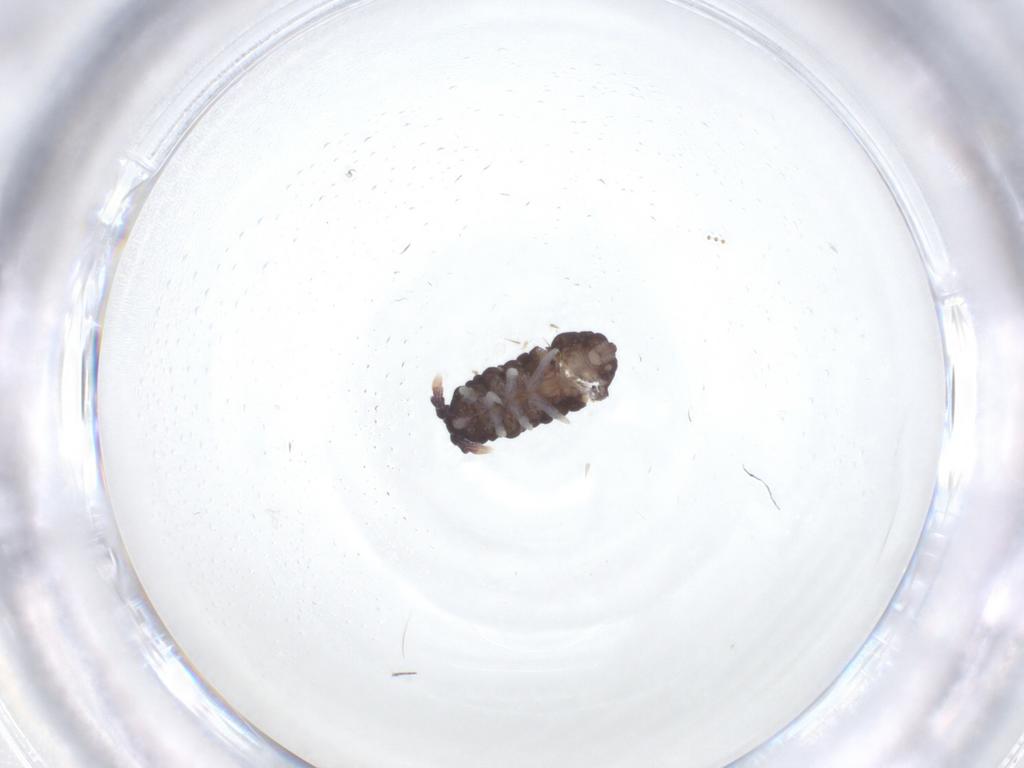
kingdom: Animalia
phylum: Arthropoda
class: Collembola
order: Poduromorpha
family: Neanuridae
